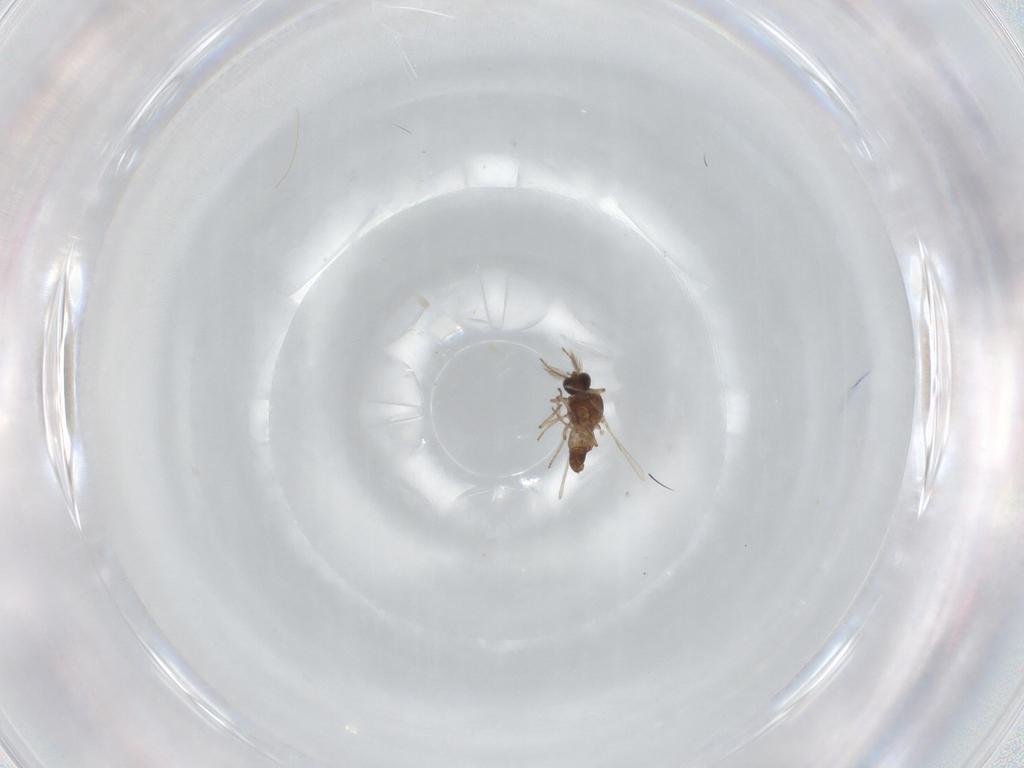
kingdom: Animalia
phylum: Arthropoda
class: Insecta
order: Diptera
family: Ceratopogonidae
